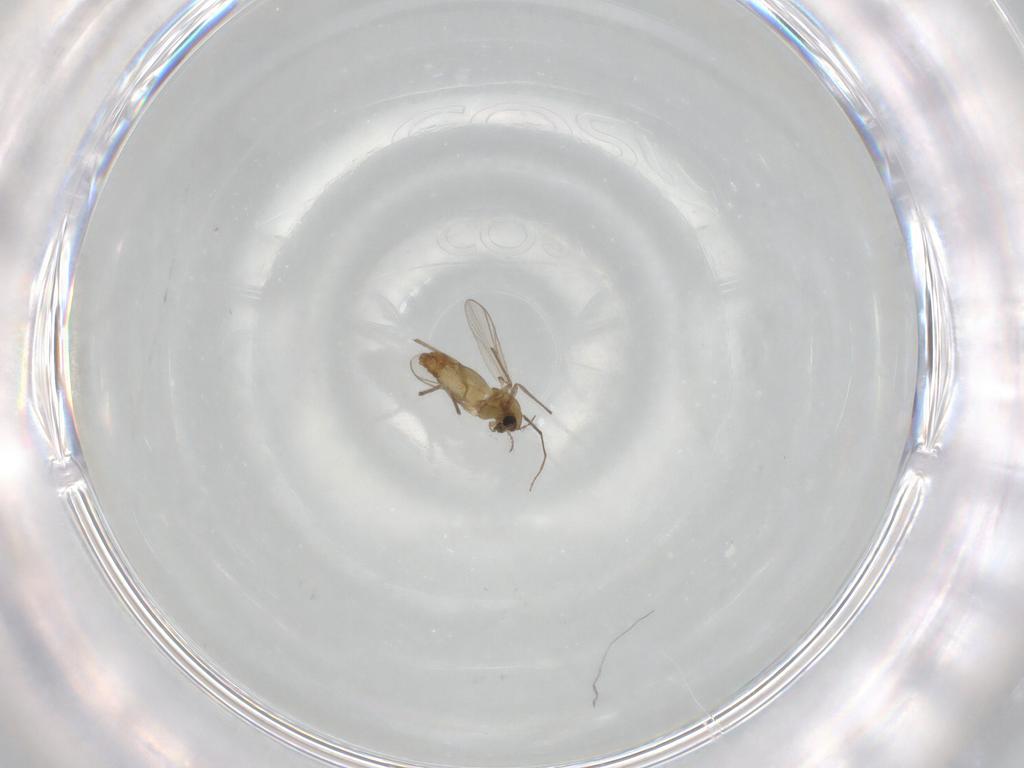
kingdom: Animalia
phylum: Arthropoda
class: Insecta
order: Diptera
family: Chironomidae
